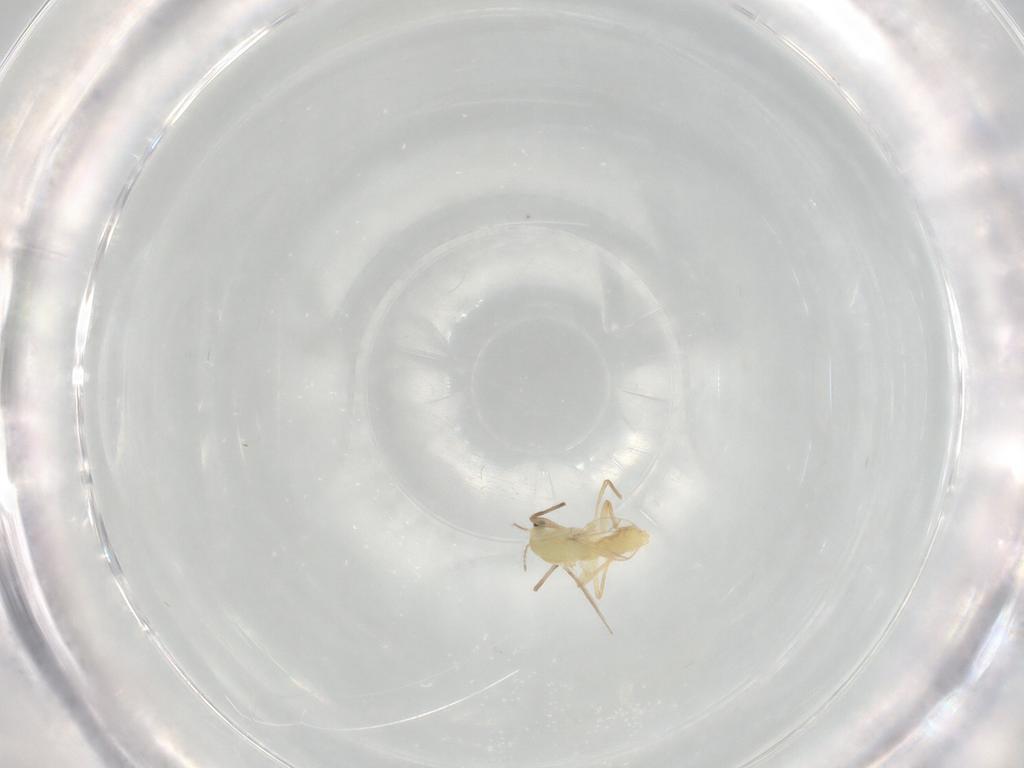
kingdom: Animalia
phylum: Arthropoda
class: Insecta
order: Diptera
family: Chironomidae
